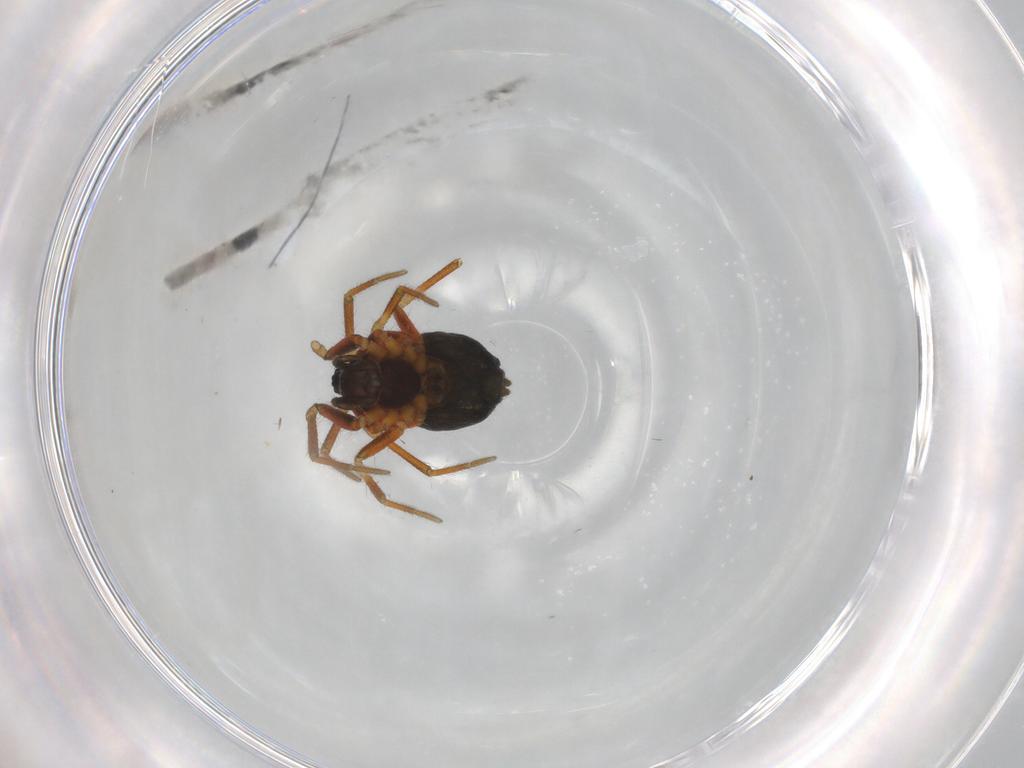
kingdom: Animalia
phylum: Arthropoda
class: Arachnida
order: Araneae
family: Linyphiidae
